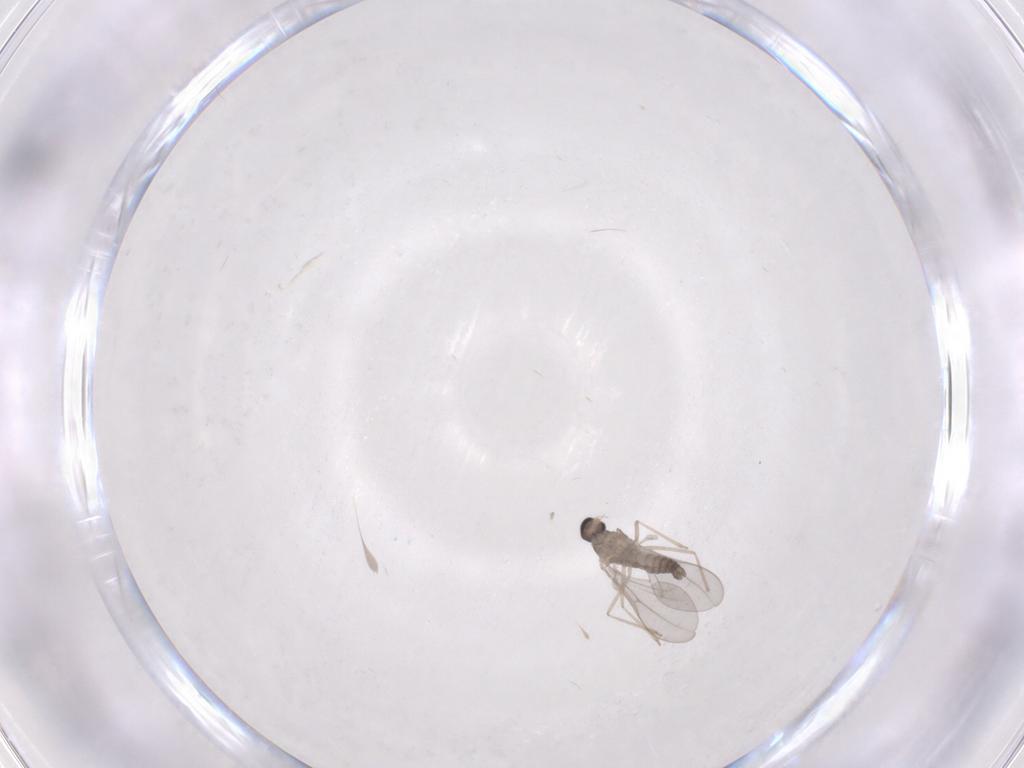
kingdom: Animalia
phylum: Arthropoda
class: Insecta
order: Diptera
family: Cecidomyiidae
